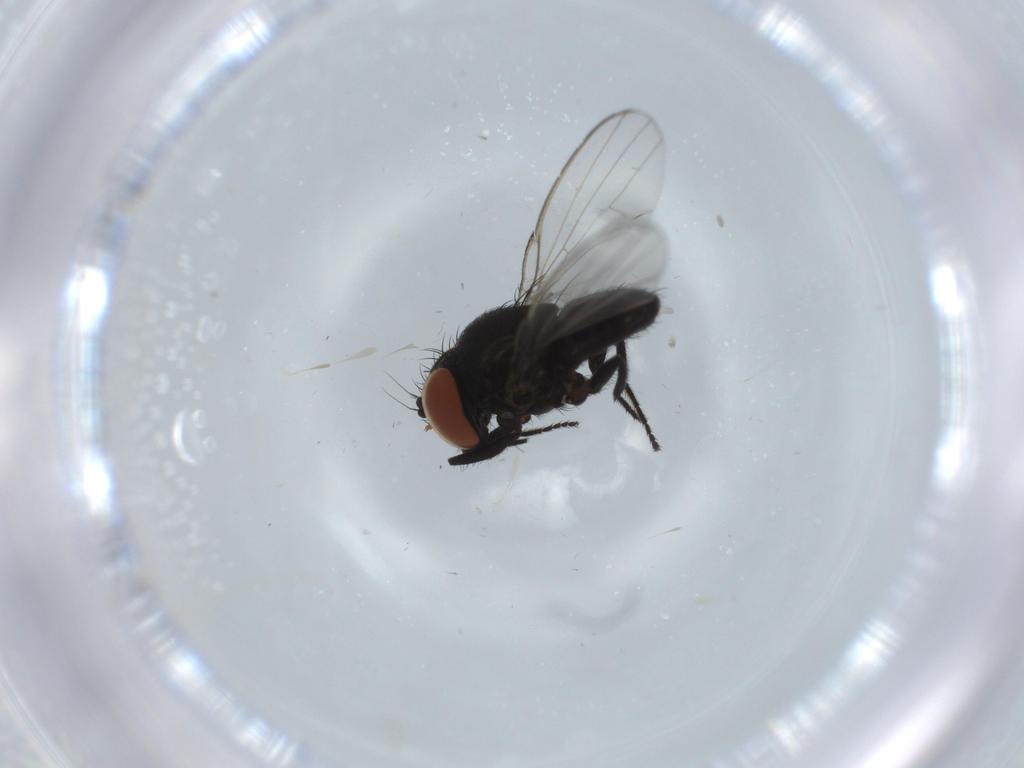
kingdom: Animalia
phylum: Arthropoda
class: Insecta
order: Diptera
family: Milichiidae
